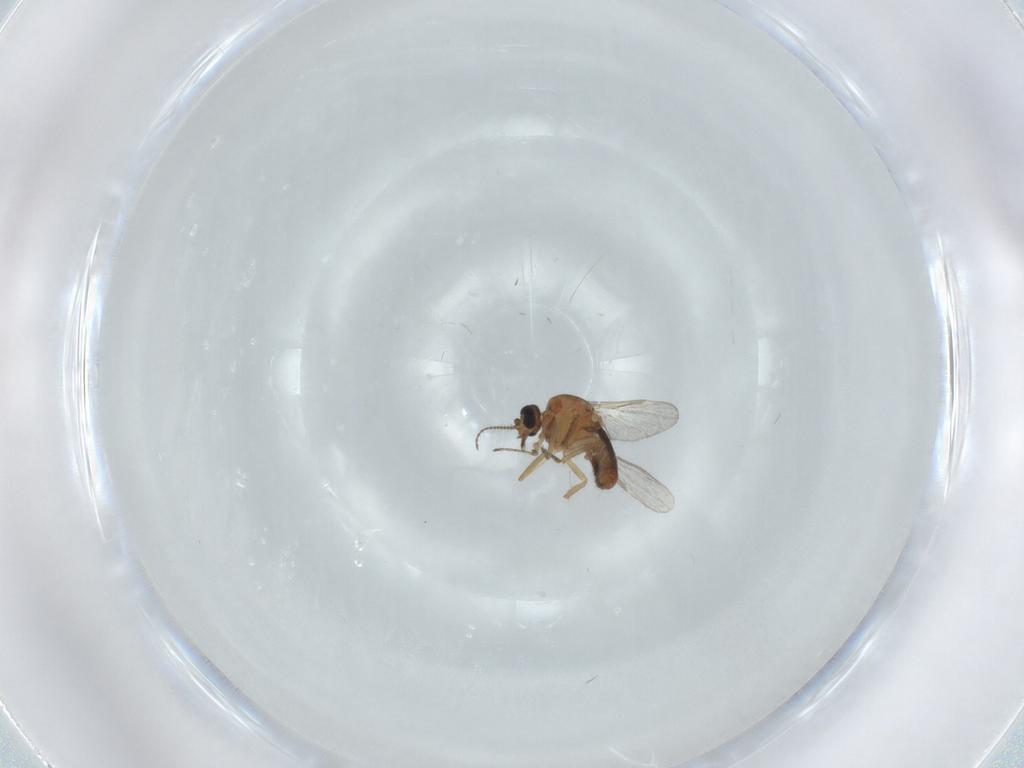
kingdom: Animalia
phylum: Arthropoda
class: Insecta
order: Diptera
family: Ceratopogonidae
